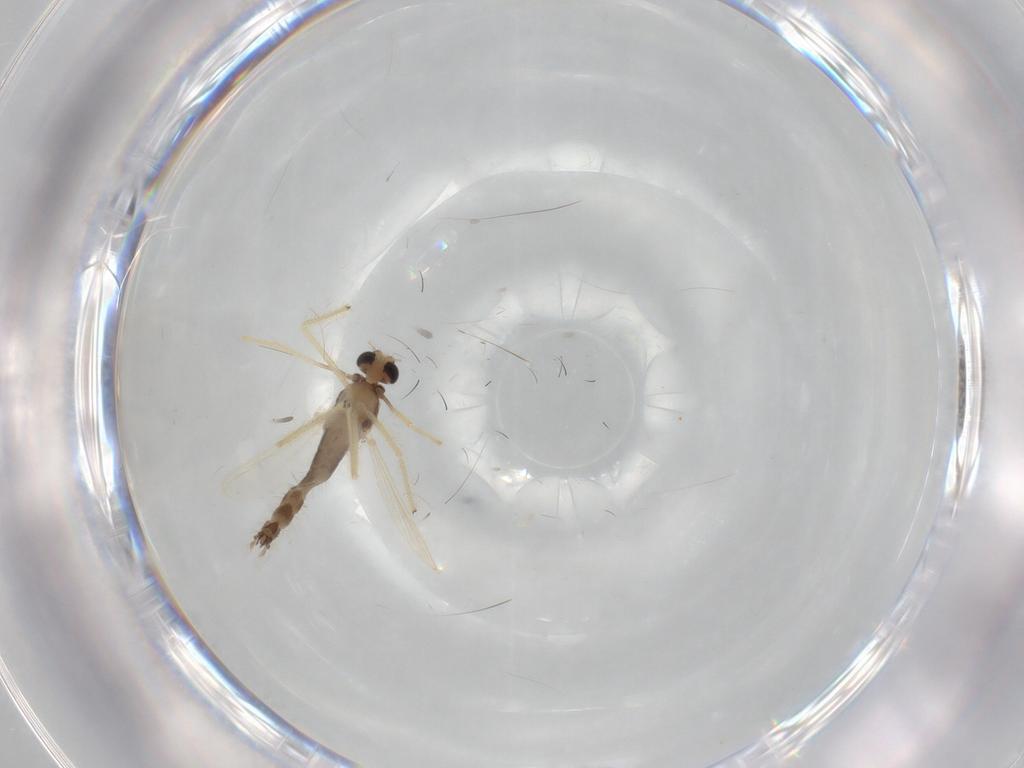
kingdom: Animalia
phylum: Arthropoda
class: Insecta
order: Diptera
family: Chironomidae
